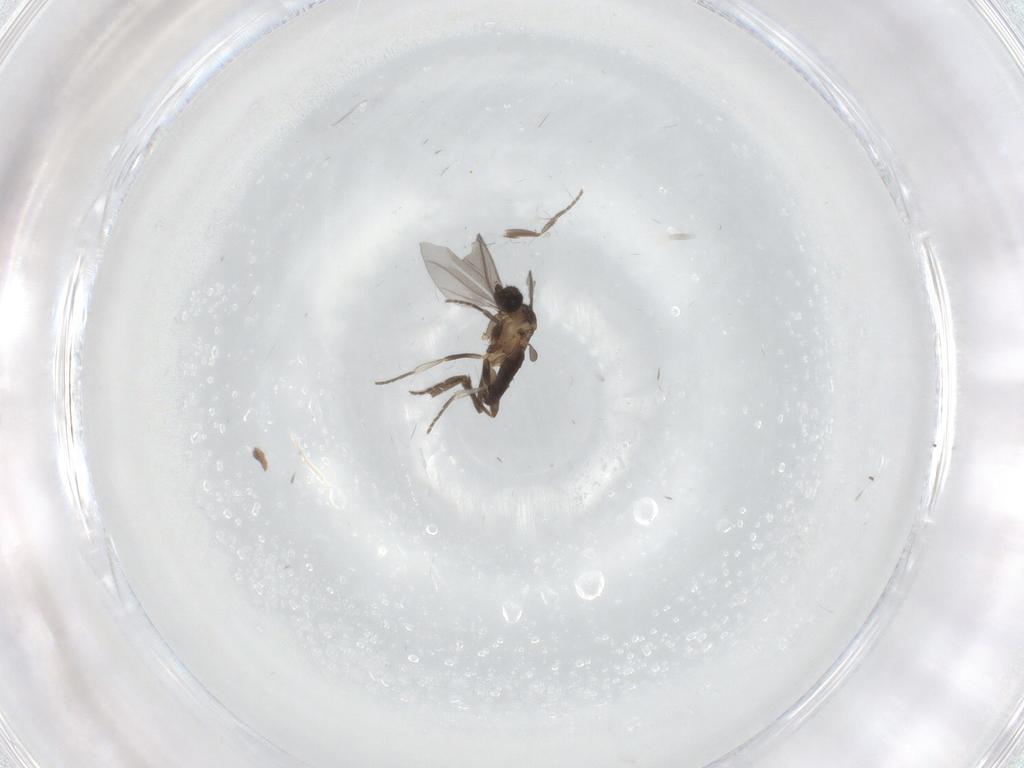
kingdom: Animalia
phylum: Arthropoda
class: Insecta
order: Diptera
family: Phoridae
